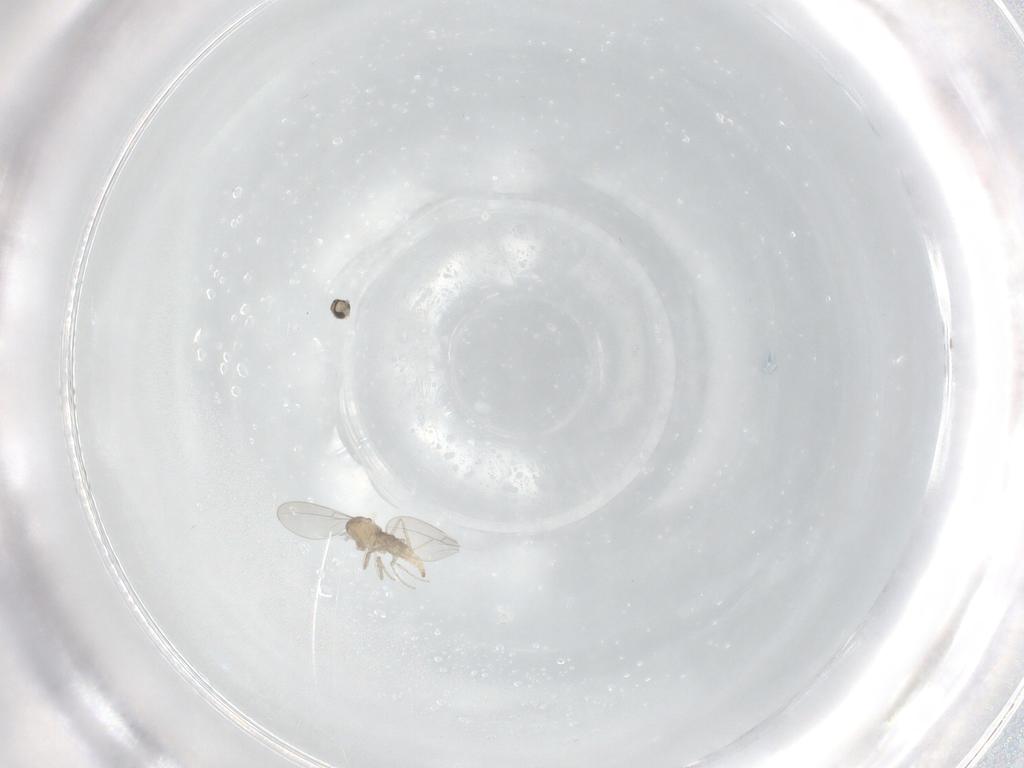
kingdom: Animalia
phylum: Arthropoda
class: Insecta
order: Diptera
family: Cecidomyiidae
